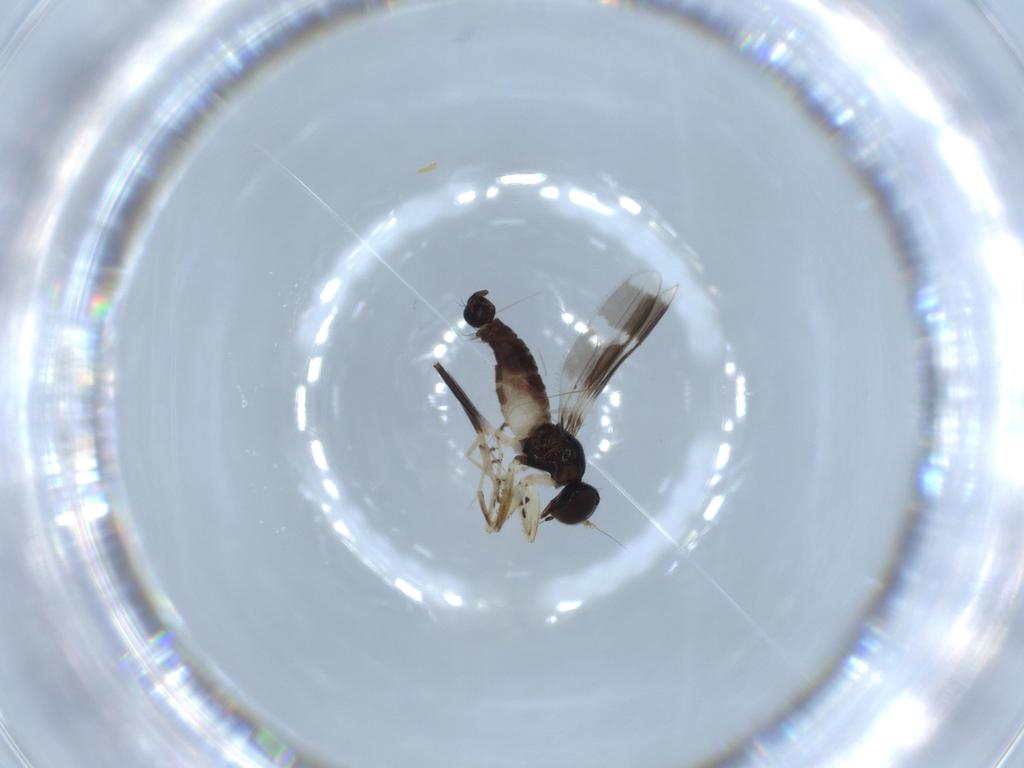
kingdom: Animalia
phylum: Arthropoda
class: Insecta
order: Diptera
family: Hybotidae
